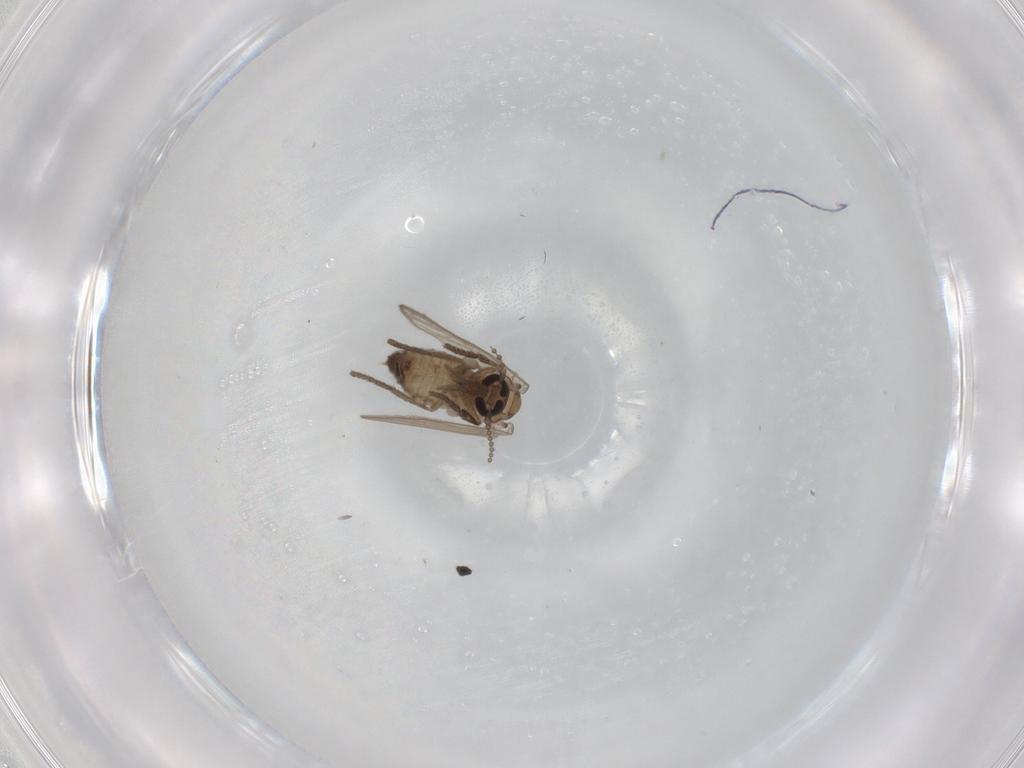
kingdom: Animalia
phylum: Arthropoda
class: Insecta
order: Diptera
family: Psychodidae
